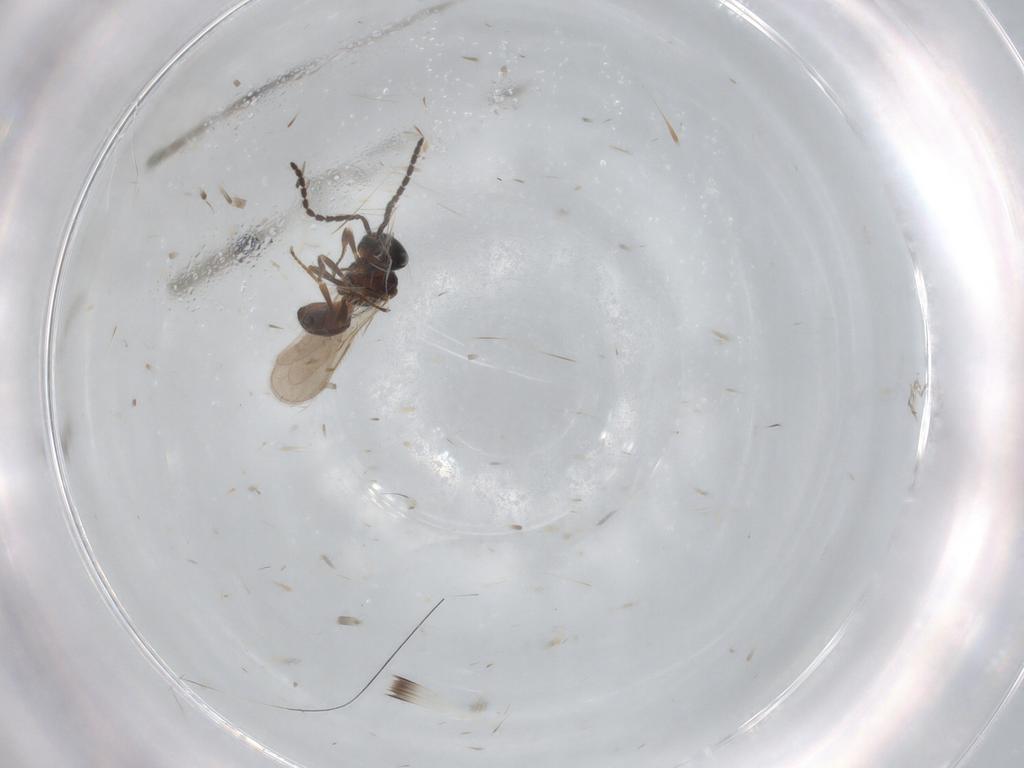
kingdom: Animalia
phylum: Arthropoda
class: Insecta
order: Hymenoptera
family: Scelionidae
